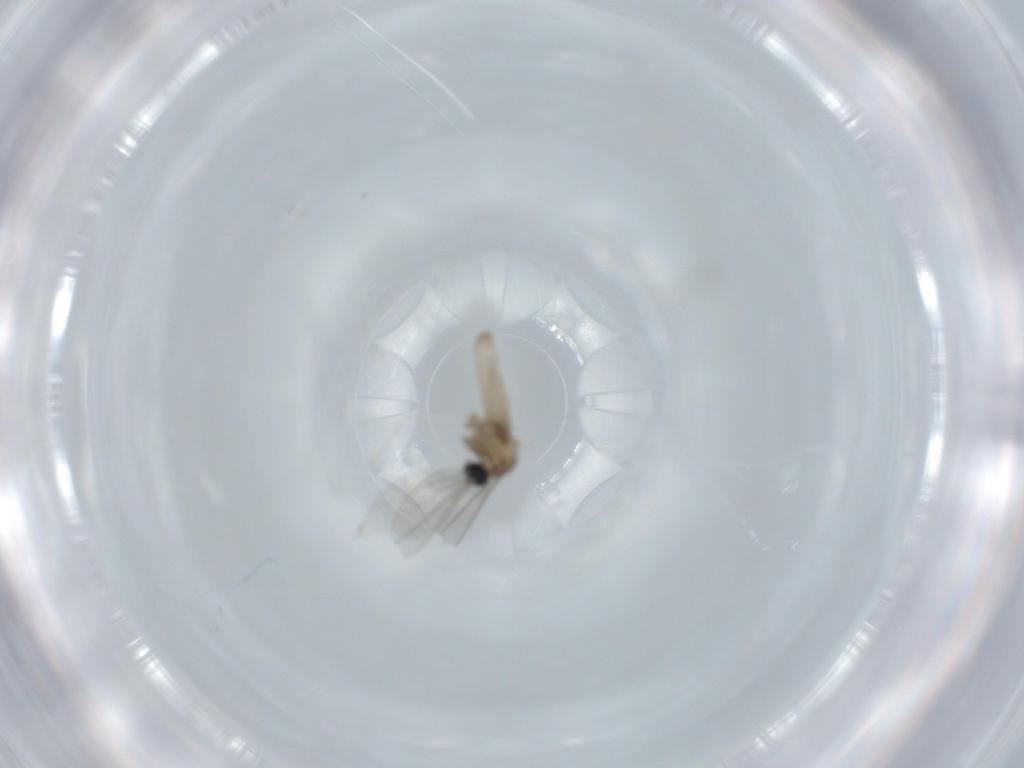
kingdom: Animalia
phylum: Arthropoda
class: Insecta
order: Diptera
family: Cecidomyiidae
